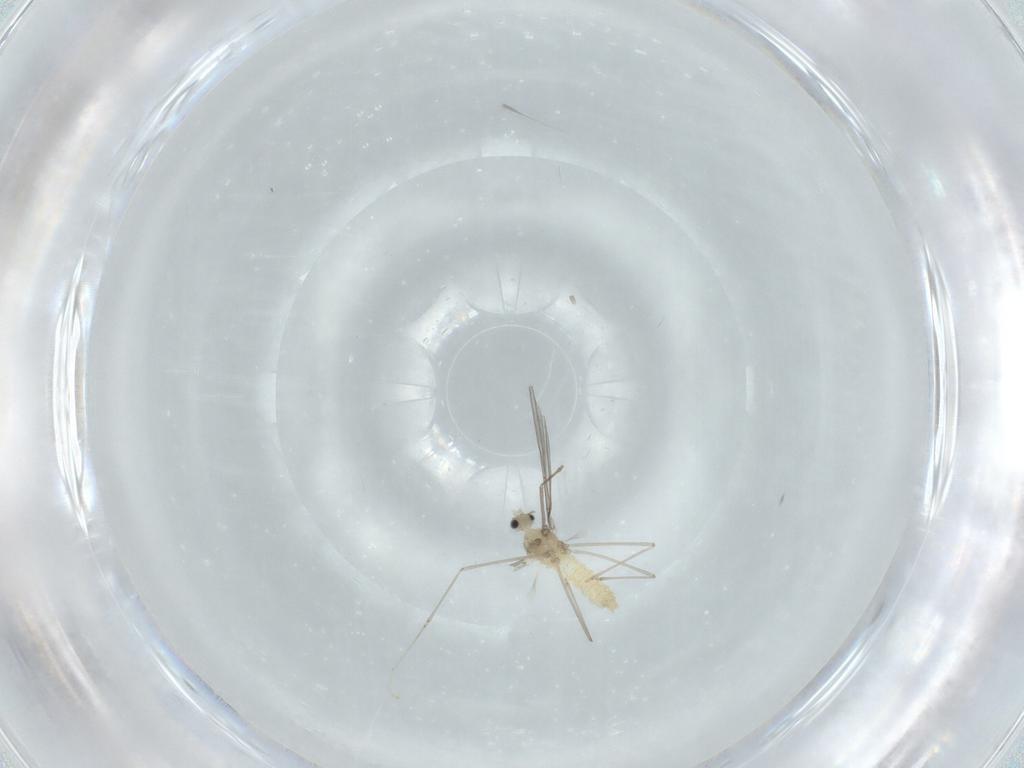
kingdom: Animalia
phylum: Arthropoda
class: Insecta
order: Diptera
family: Cecidomyiidae
